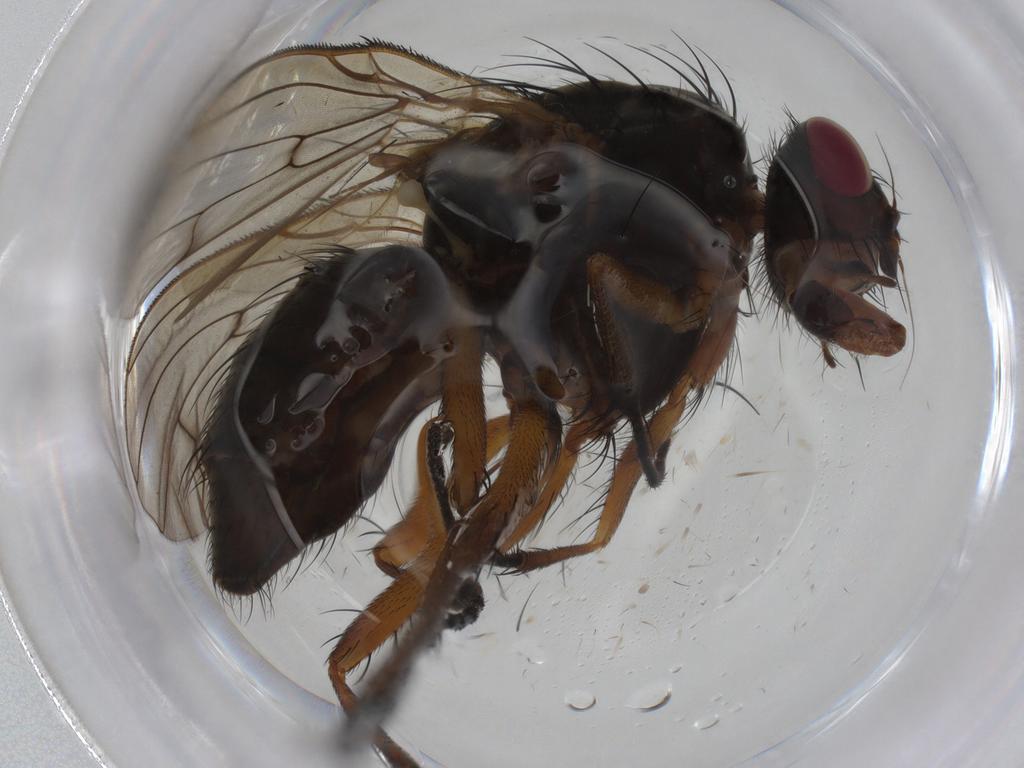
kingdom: Animalia
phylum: Arthropoda
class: Insecta
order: Diptera
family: Anthomyiidae
